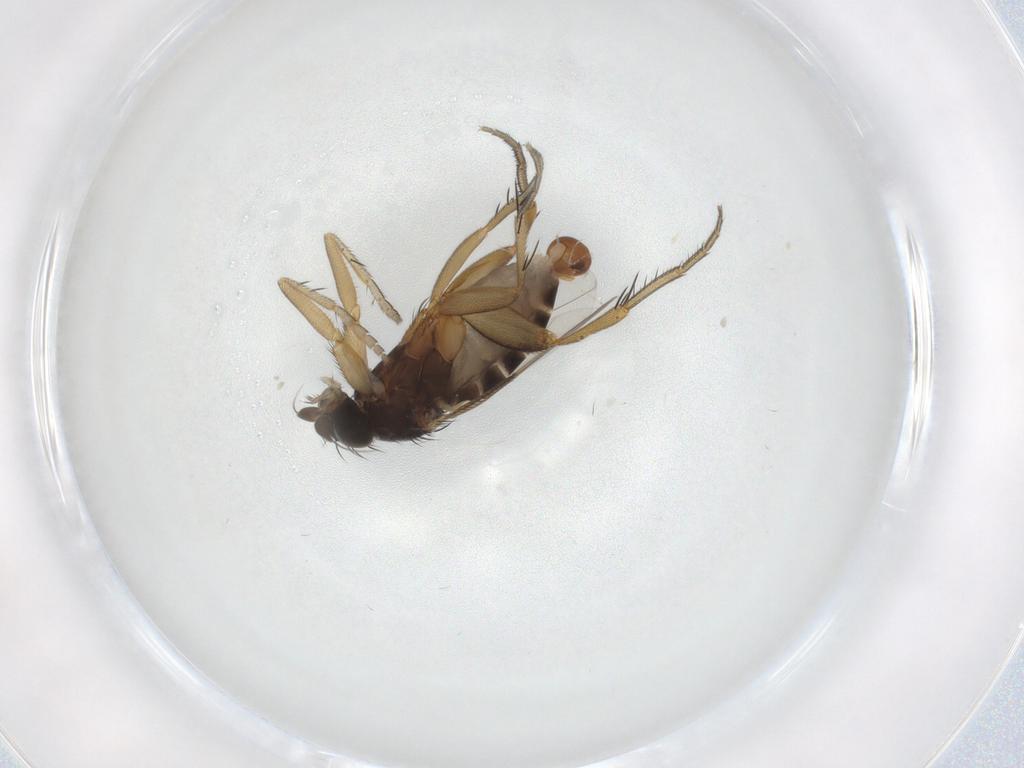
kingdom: Animalia
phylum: Arthropoda
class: Insecta
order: Diptera
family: Phoridae
